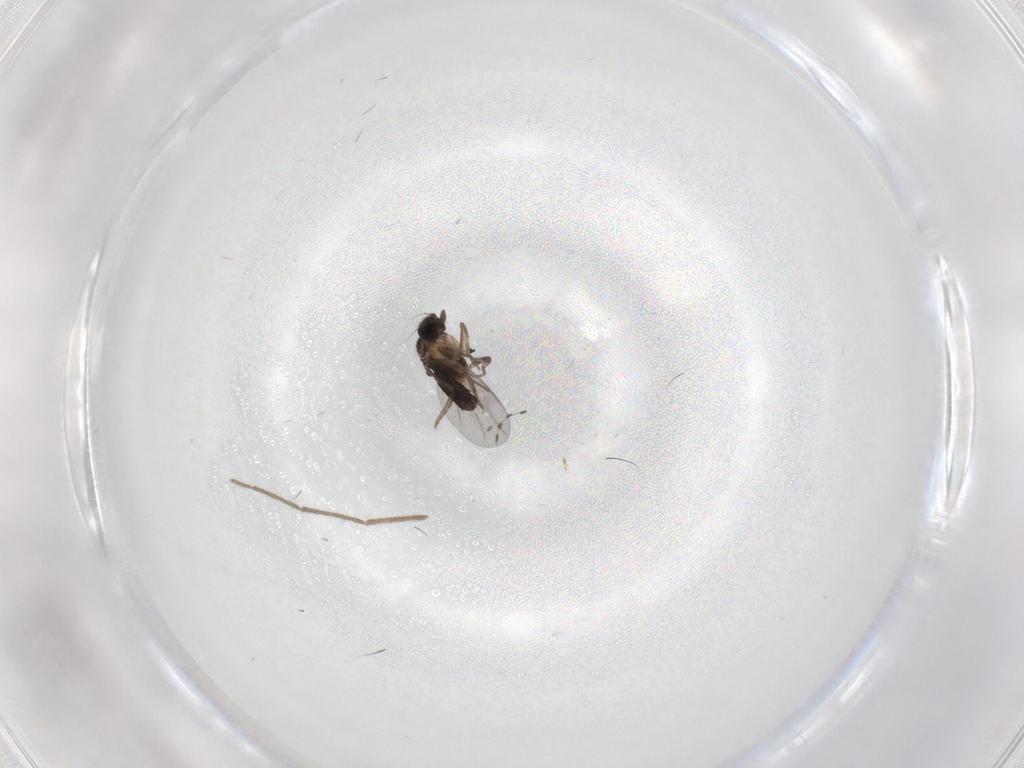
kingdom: Animalia
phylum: Arthropoda
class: Insecta
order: Diptera
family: Chironomidae
